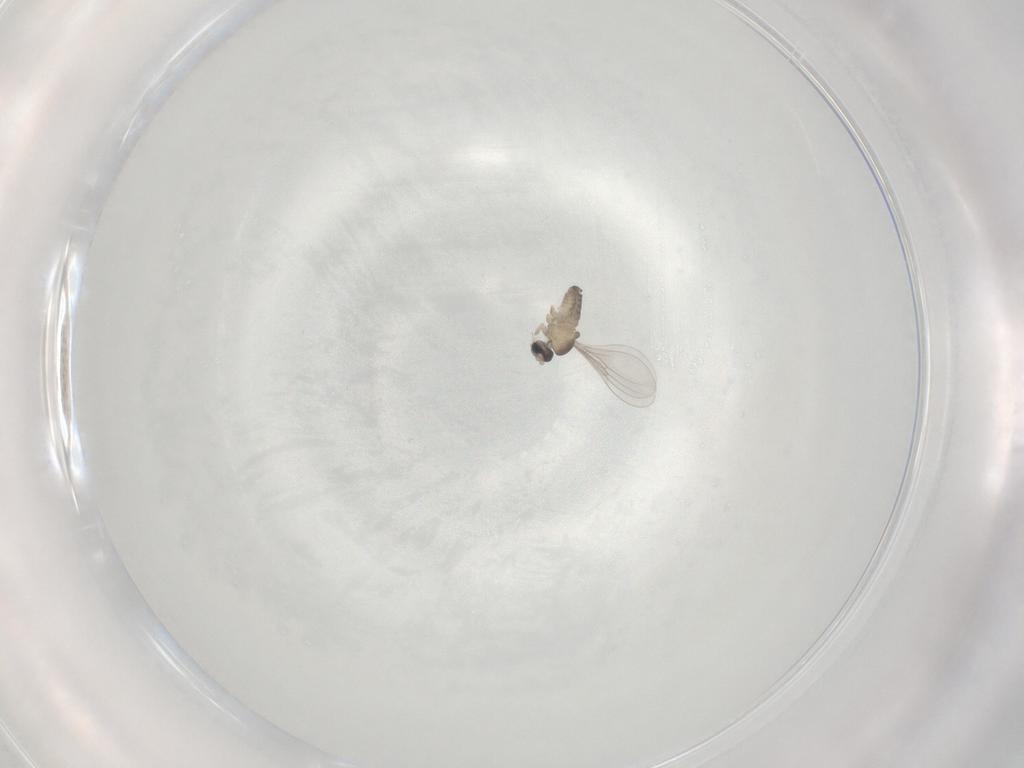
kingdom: Animalia
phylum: Arthropoda
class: Insecta
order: Diptera
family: Cecidomyiidae
